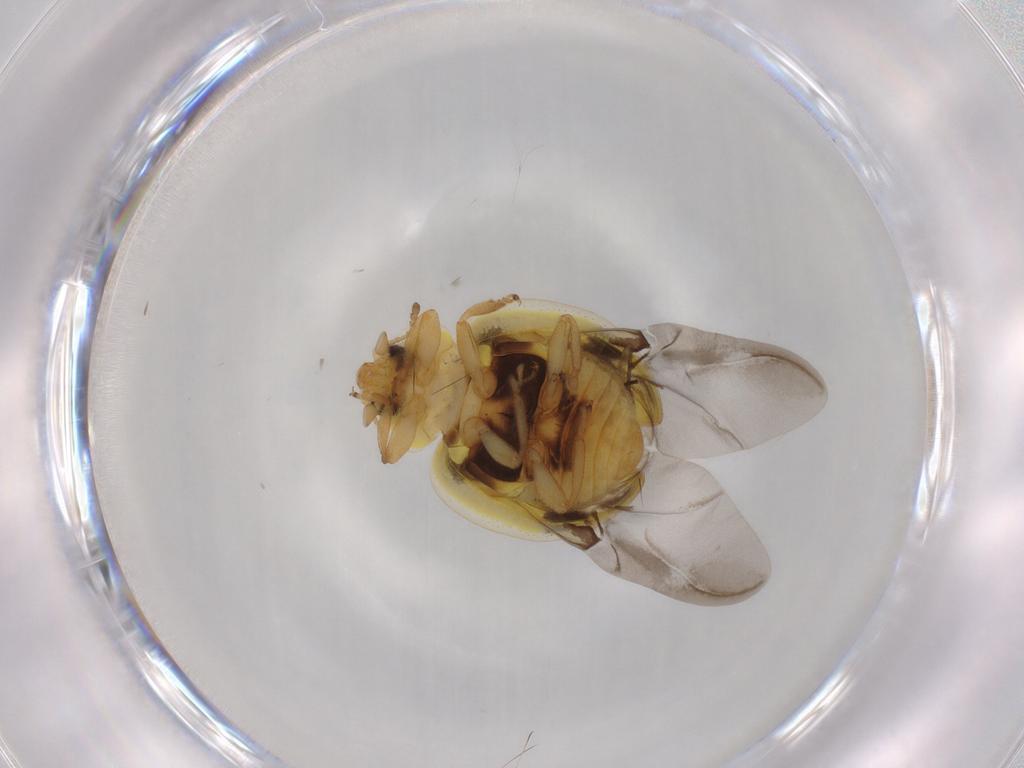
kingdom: Animalia
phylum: Arthropoda
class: Insecta
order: Coleoptera
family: Coccinellidae
